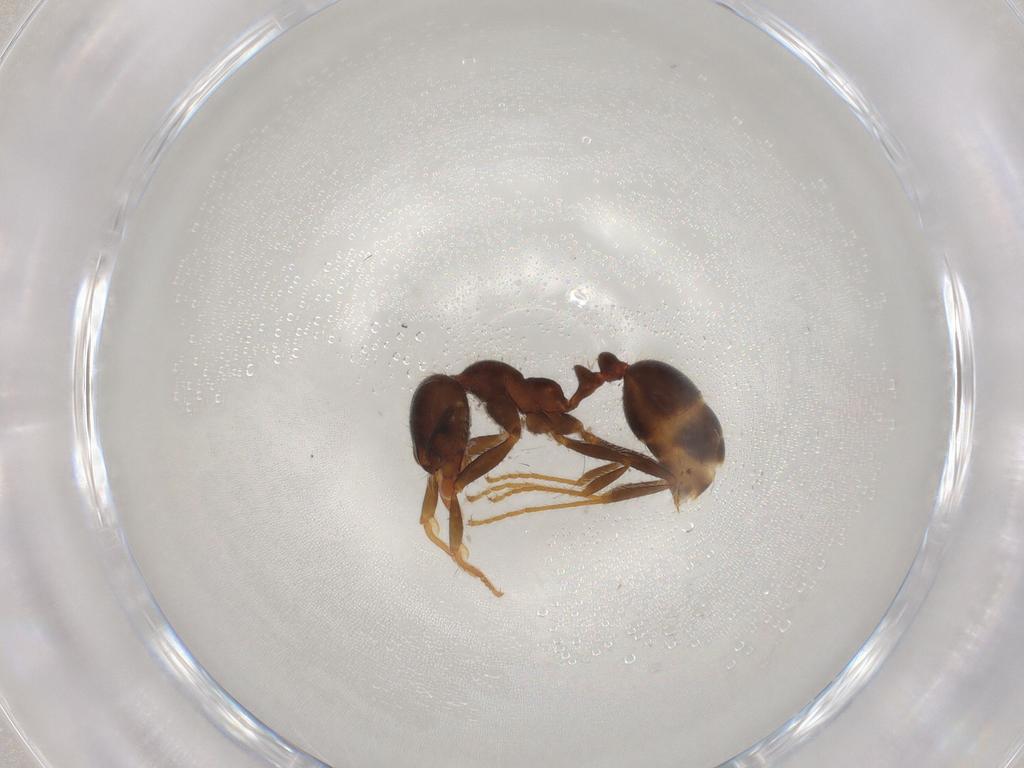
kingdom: Animalia
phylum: Arthropoda
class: Insecta
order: Hymenoptera
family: Formicidae
